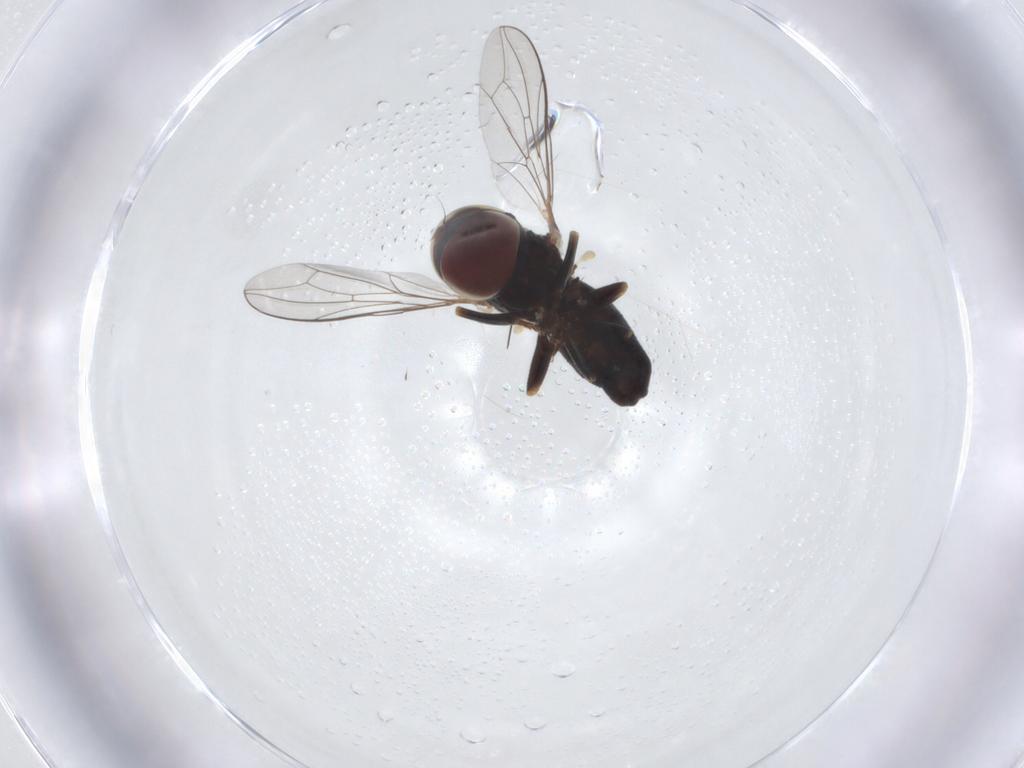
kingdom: Animalia
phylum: Arthropoda
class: Insecta
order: Diptera
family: Pipunculidae
